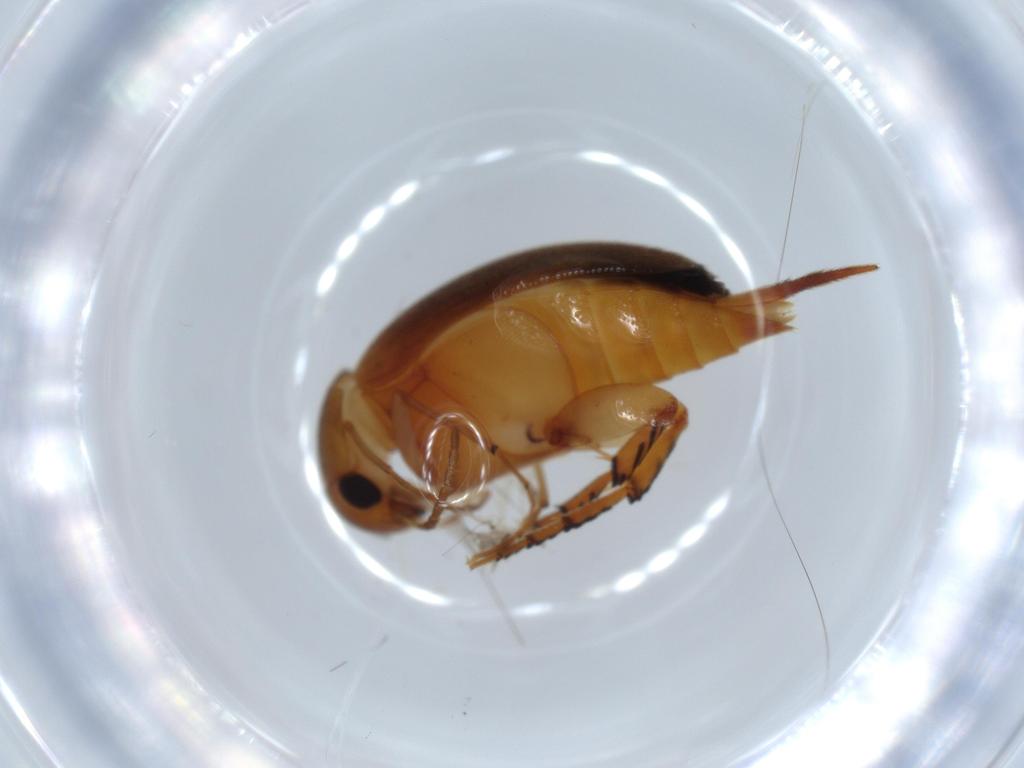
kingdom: Animalia
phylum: Arthropoda
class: Insecta
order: Coleoptera
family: Mordellidae
